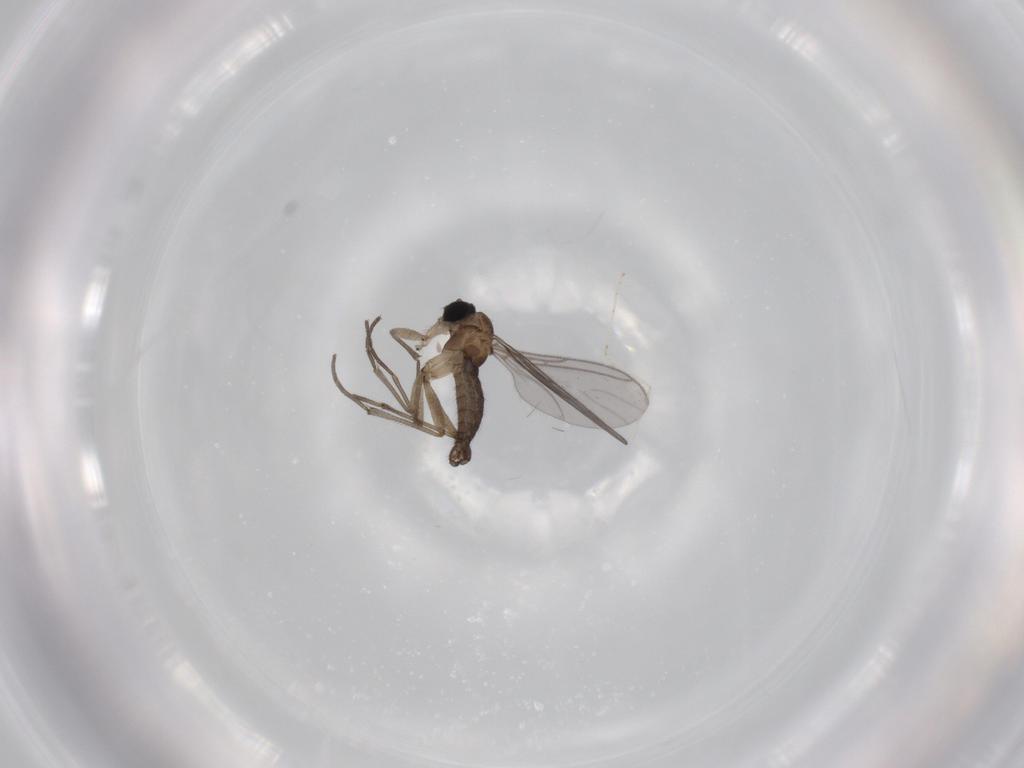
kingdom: Animalia
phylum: Arthropoda
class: Insecta
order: Diptera
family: Sciaridae
